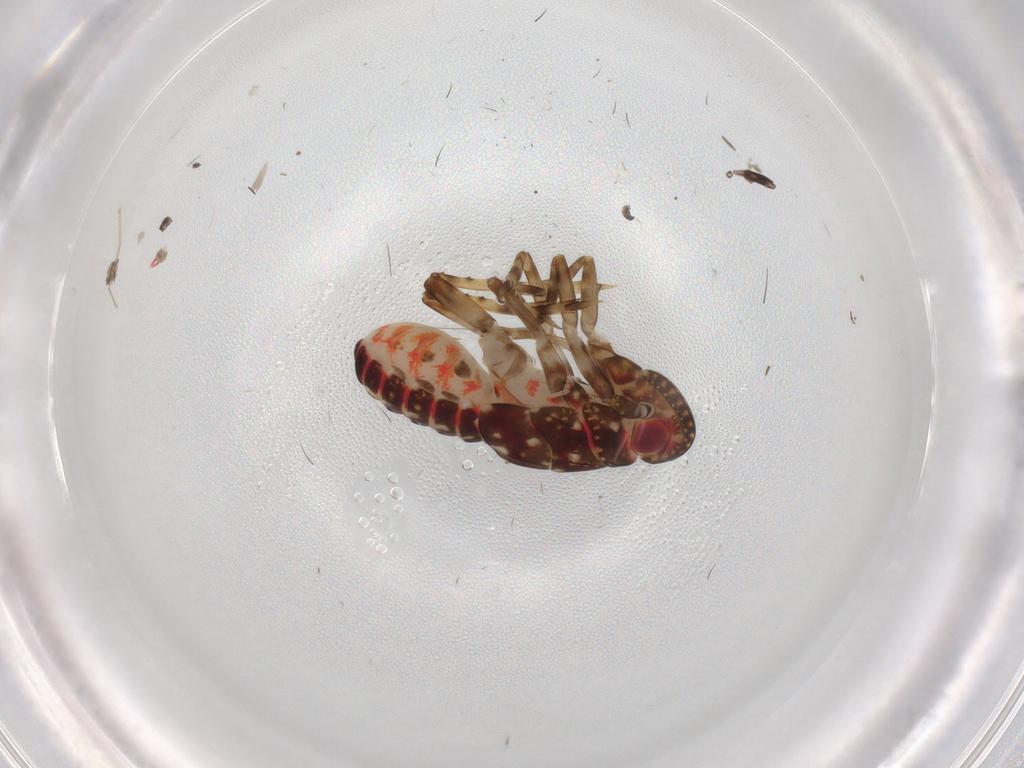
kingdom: Animalia
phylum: Arthropoda
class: Insecta
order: Hemiptera
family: Delphacidae
